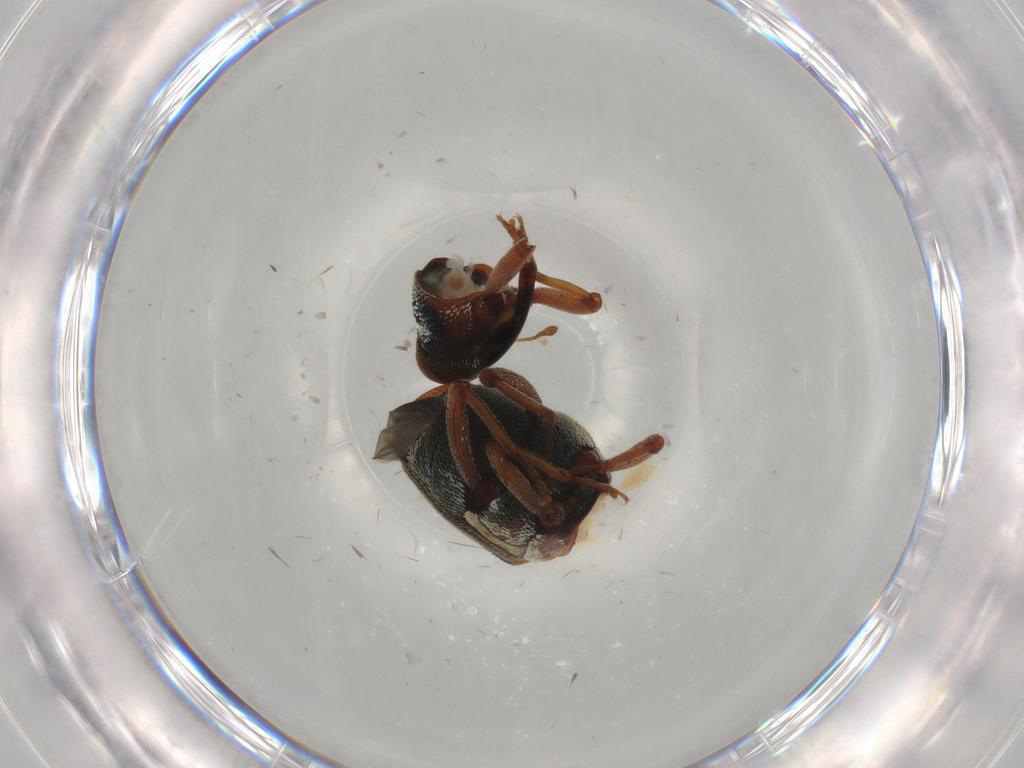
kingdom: Animalia
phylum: Arthropoda
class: Insecta
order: Coleoptera
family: Curculionidae
